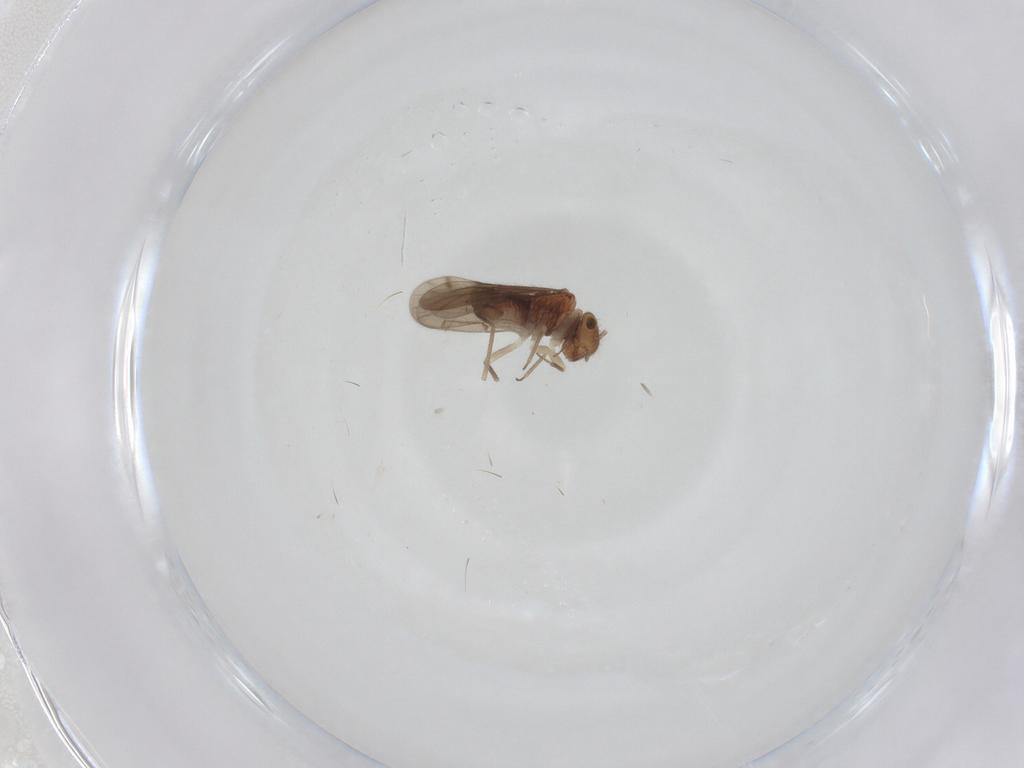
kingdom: Animalia
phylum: Arthropoda
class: Insecta
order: Psocodea
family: Ectopsocidae
